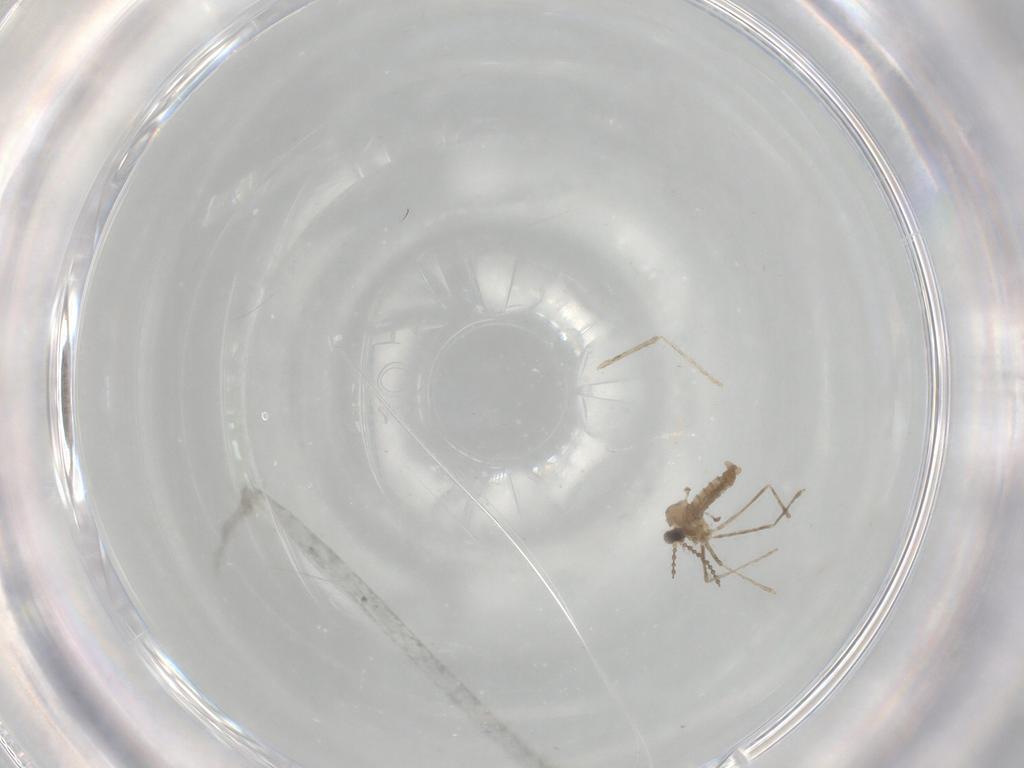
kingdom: Animalia
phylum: Arthropoda
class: Insecta
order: Diptera
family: Cecidomyiidae
